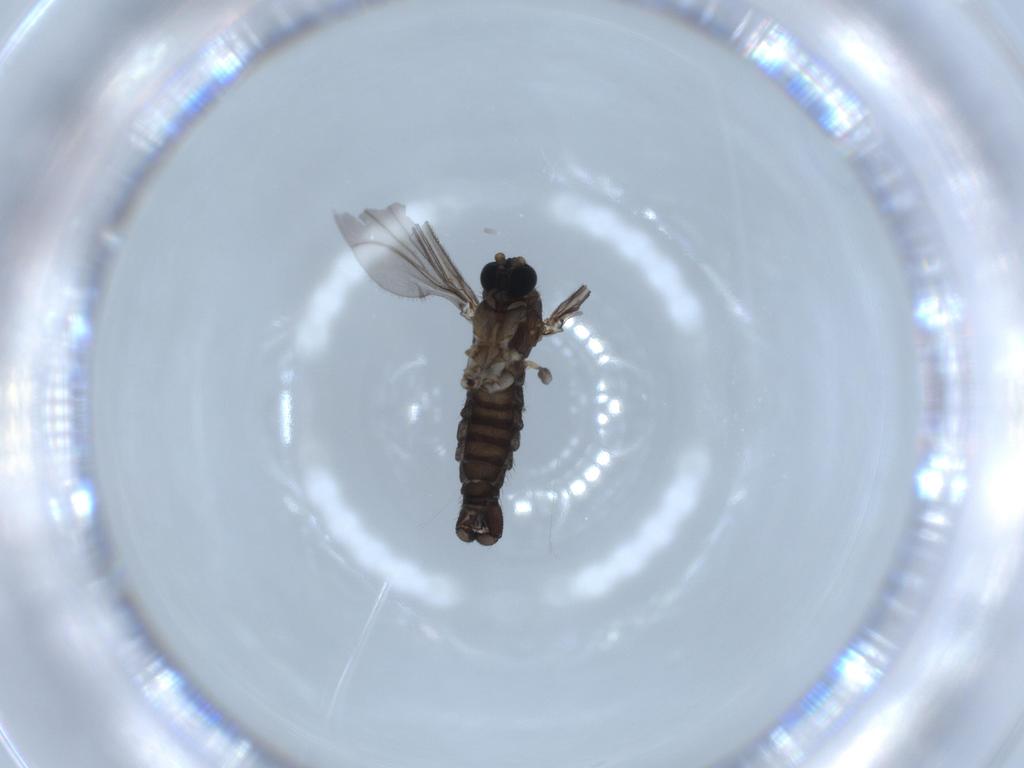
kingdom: Animalia
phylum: Arthropoda
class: Insecta
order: Diptera
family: Sciaridae
